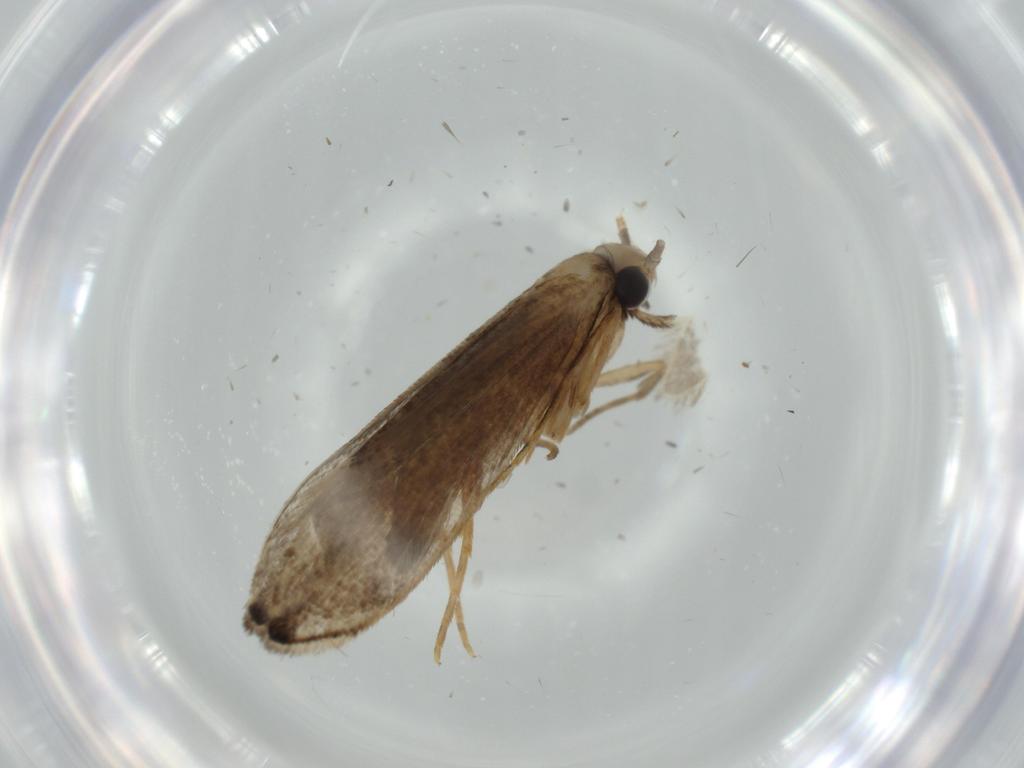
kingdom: Animalia
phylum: Arthropoda
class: Insecta
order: Lepidoptera
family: Tineidae
